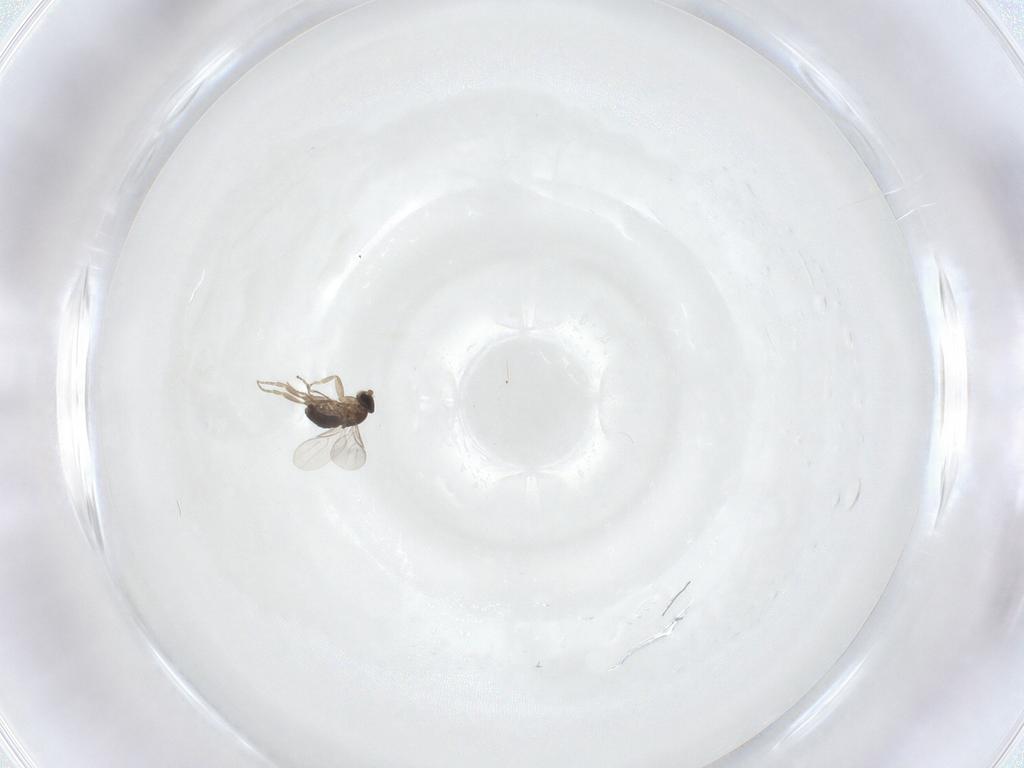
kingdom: Animalia
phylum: Arthropoda
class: Insecta
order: Diptera
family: Phoridae
